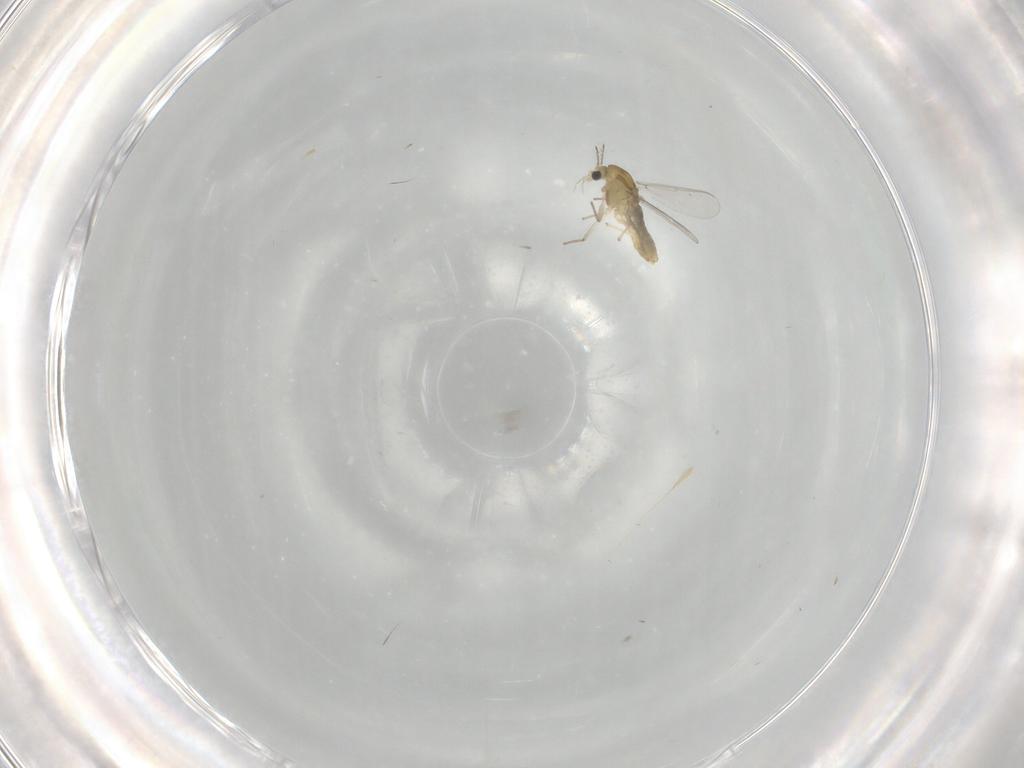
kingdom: Animalia
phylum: Arthropoda
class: Insecta
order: Diptera
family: Chironomidae
